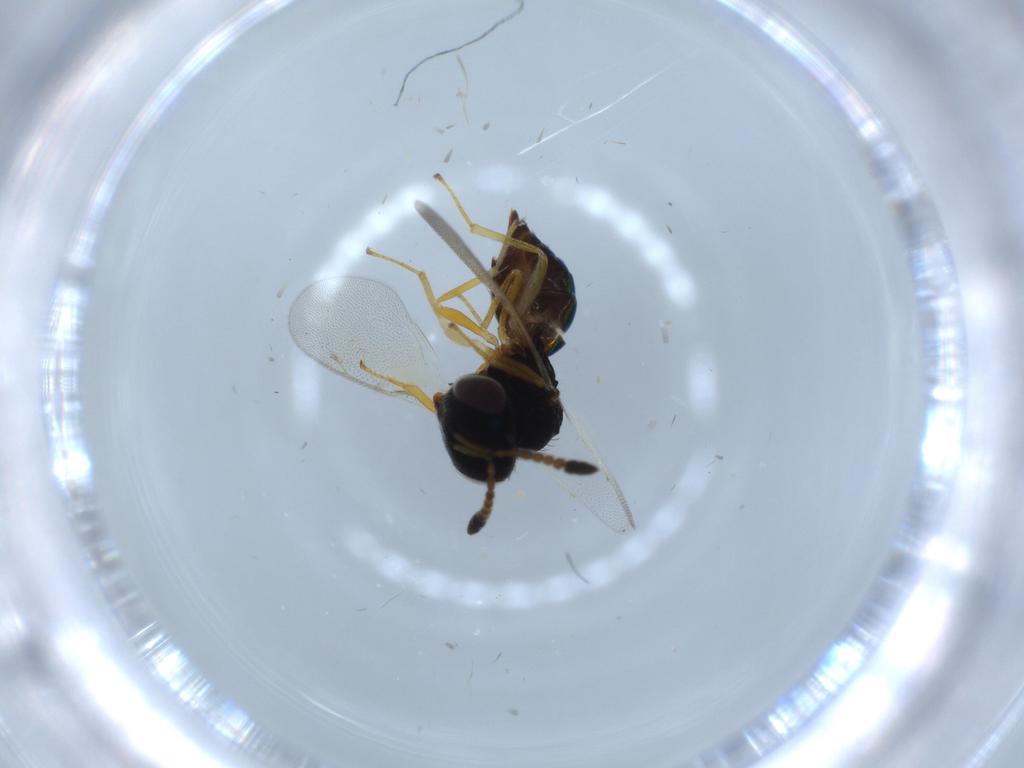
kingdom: Animalia
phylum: Arthropoda
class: Insecta
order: Hymenoptera
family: Pteromalidae
